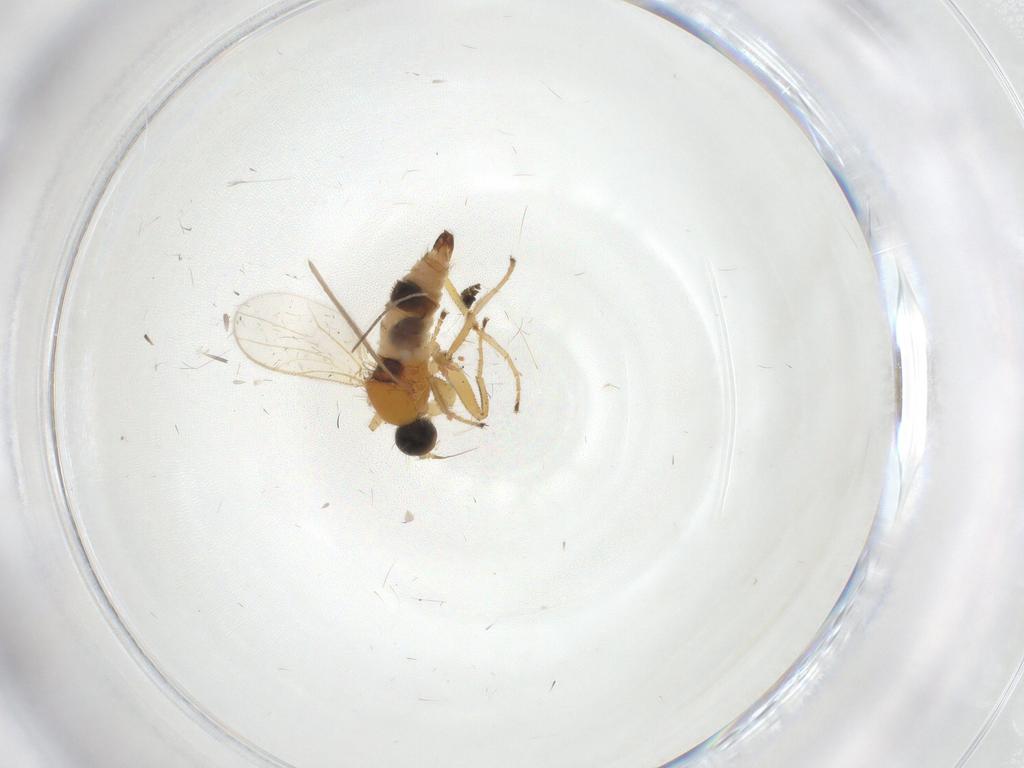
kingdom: Animalia
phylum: Arthropoda
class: Insecta
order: Diptera
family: Hybotidae
